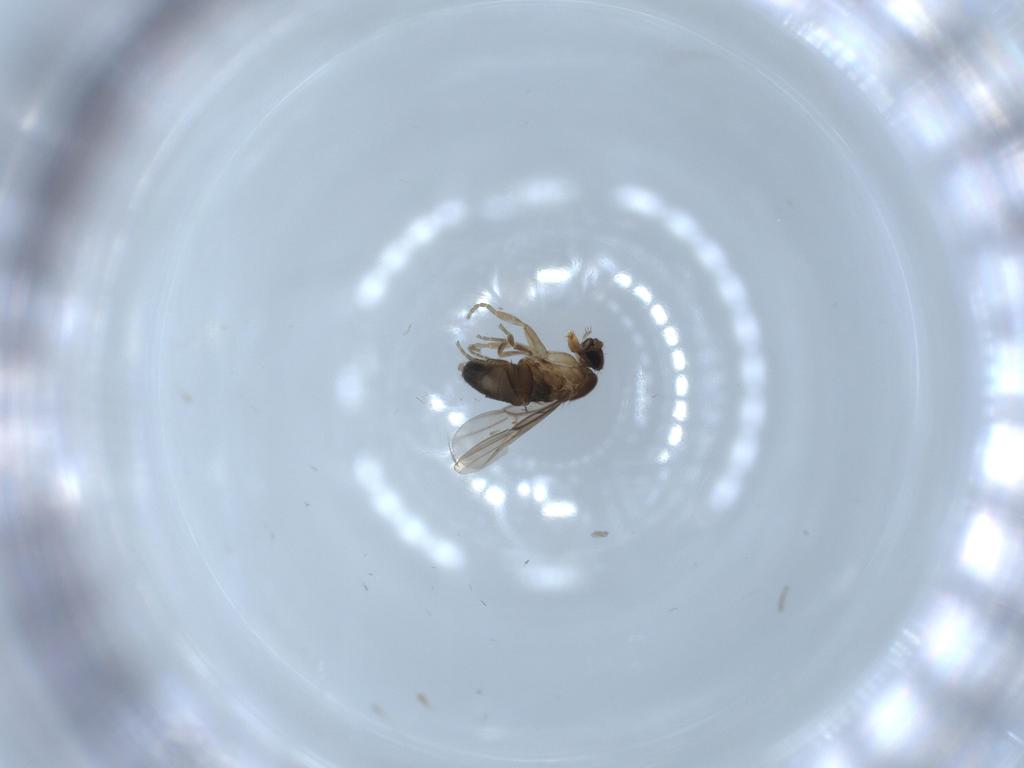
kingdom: Animalia
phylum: Arthropoda
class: Insecta
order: Diptera
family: Phoridae
